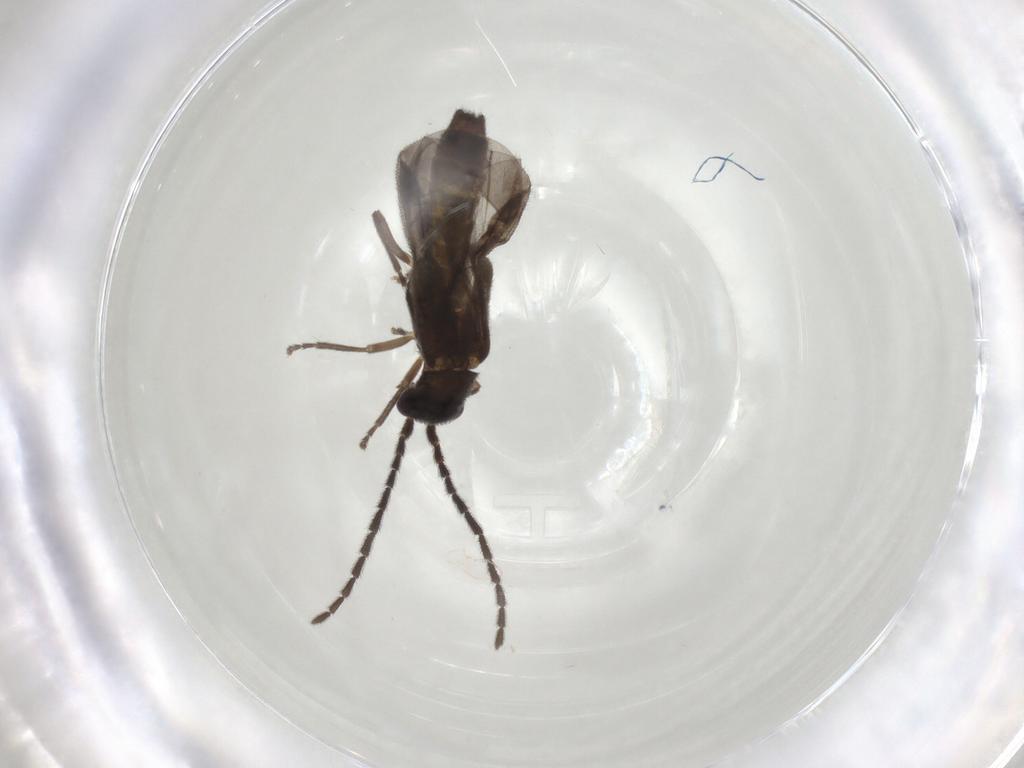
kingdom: Animalia
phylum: Arthropoda
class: Insecta
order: Coleoptera
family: Cantharidae
